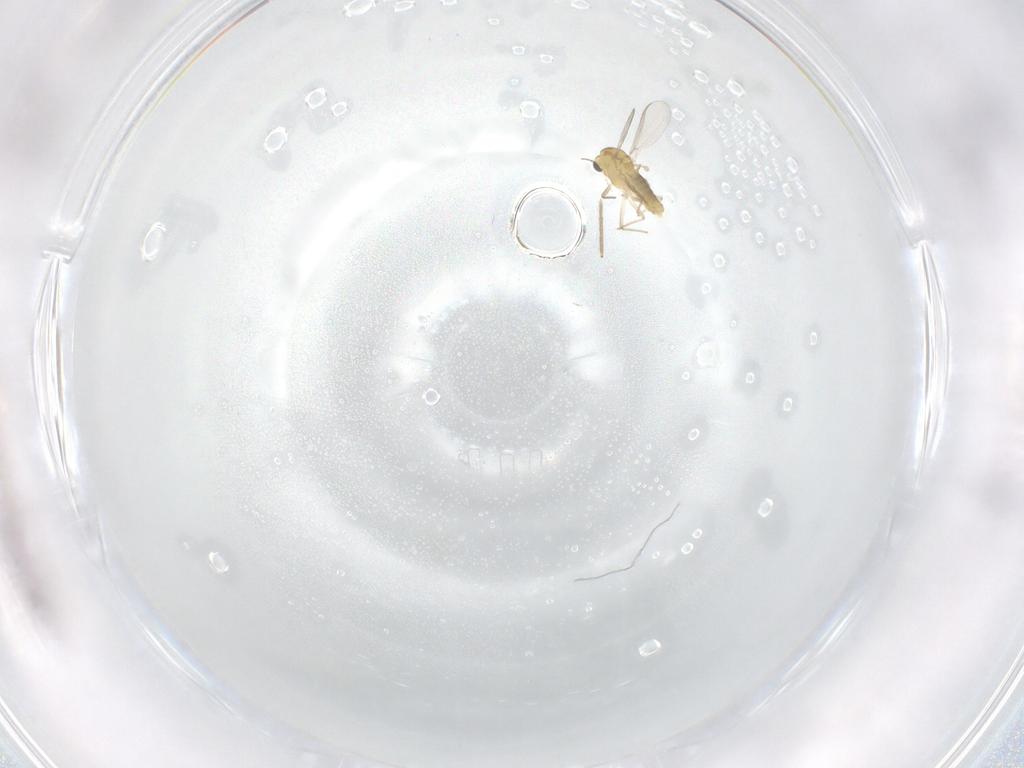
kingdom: Animalia
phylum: Arthropoda
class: Insecta
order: Diptera
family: Chironomidae
